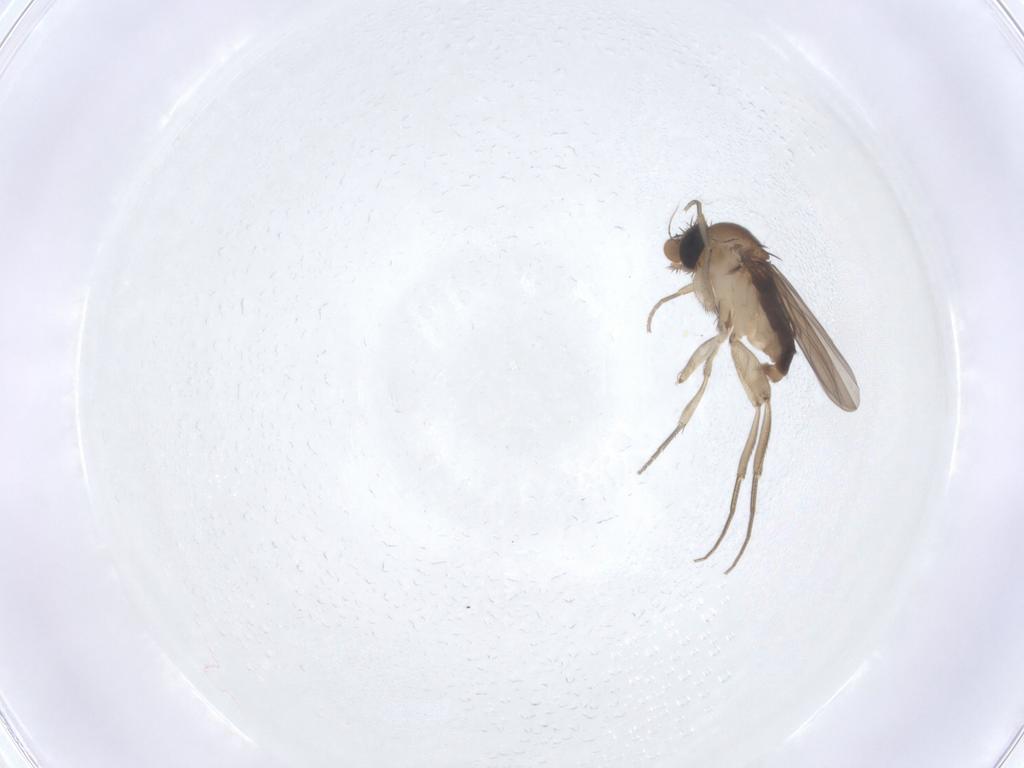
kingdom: Animalia
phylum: Arthropoda
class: Insecta
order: Diptera
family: Phoridae
